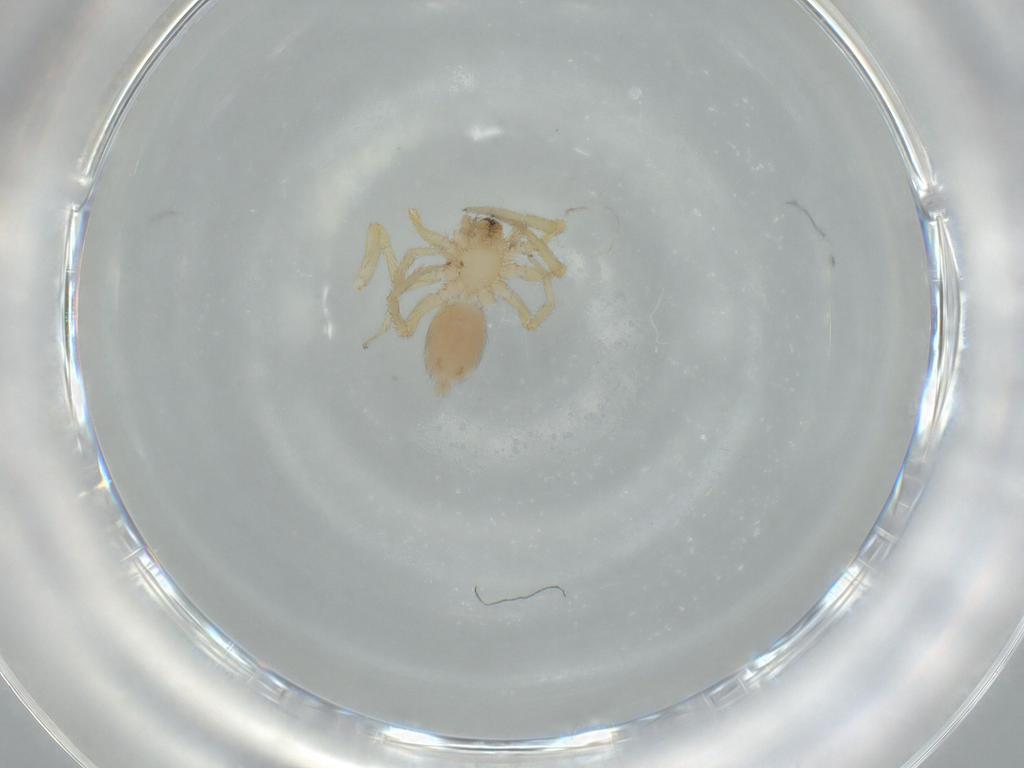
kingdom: Animalia
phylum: Arthropoda
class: Arachnida
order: Araneae
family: Oonopidae
